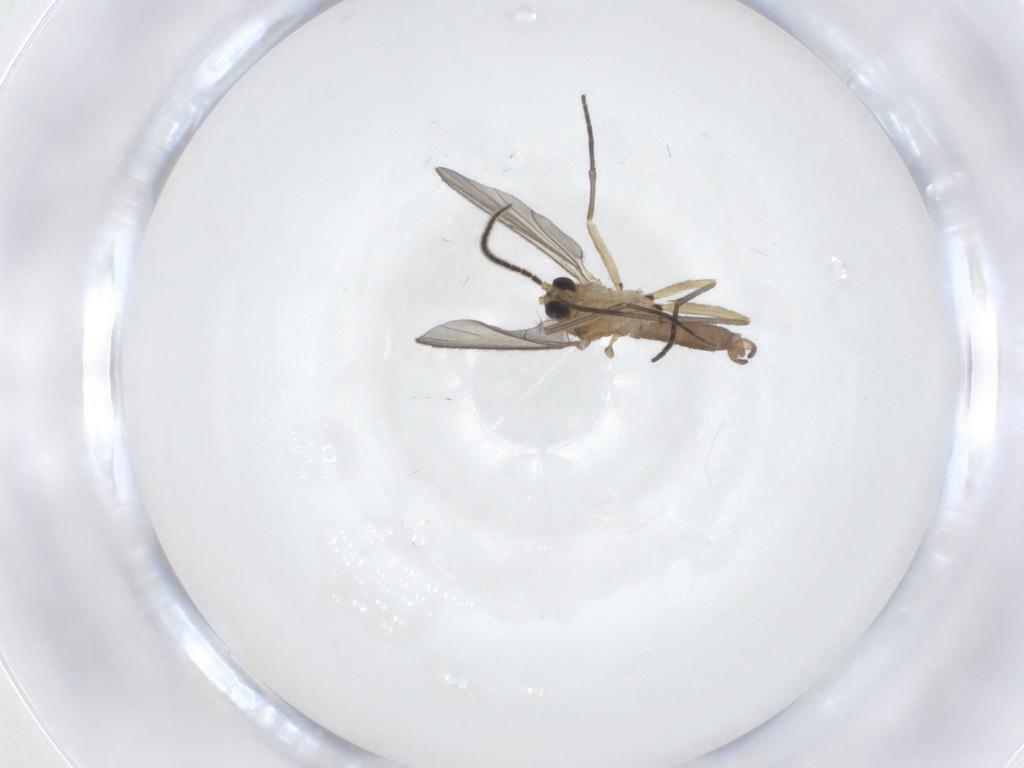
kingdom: Animalia
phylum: Arthropoda
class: Insecta
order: Diptera
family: Sciaridae
